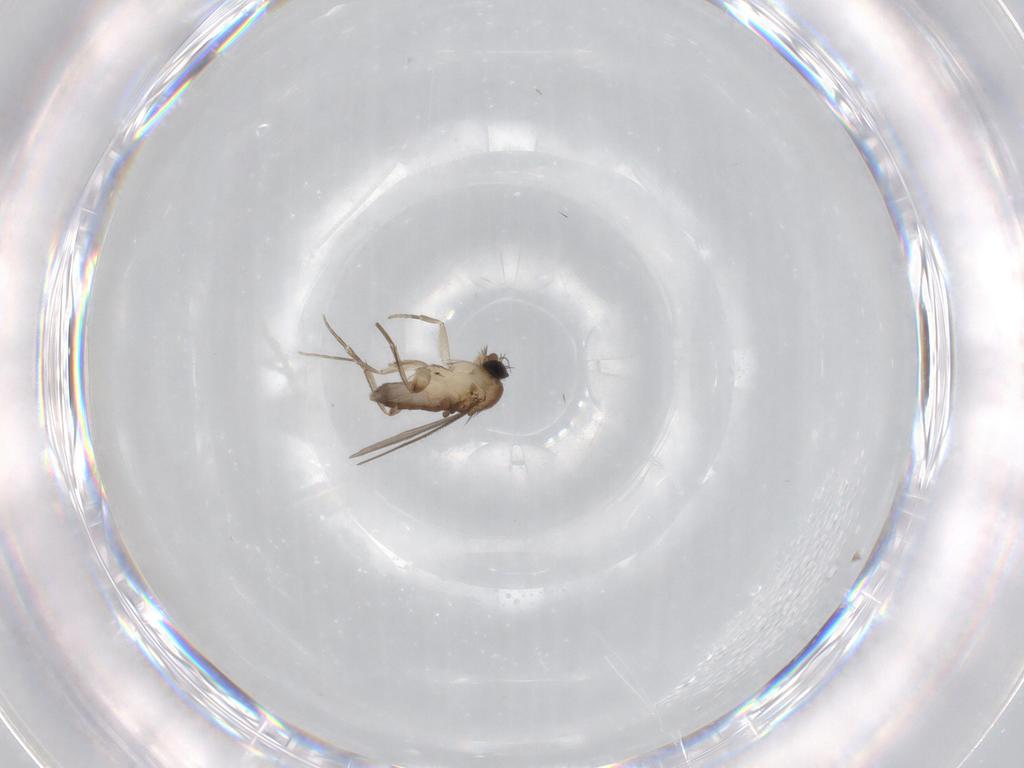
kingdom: Animalia
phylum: Arthropoda
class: Insecta
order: Diptera
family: Phoridae
